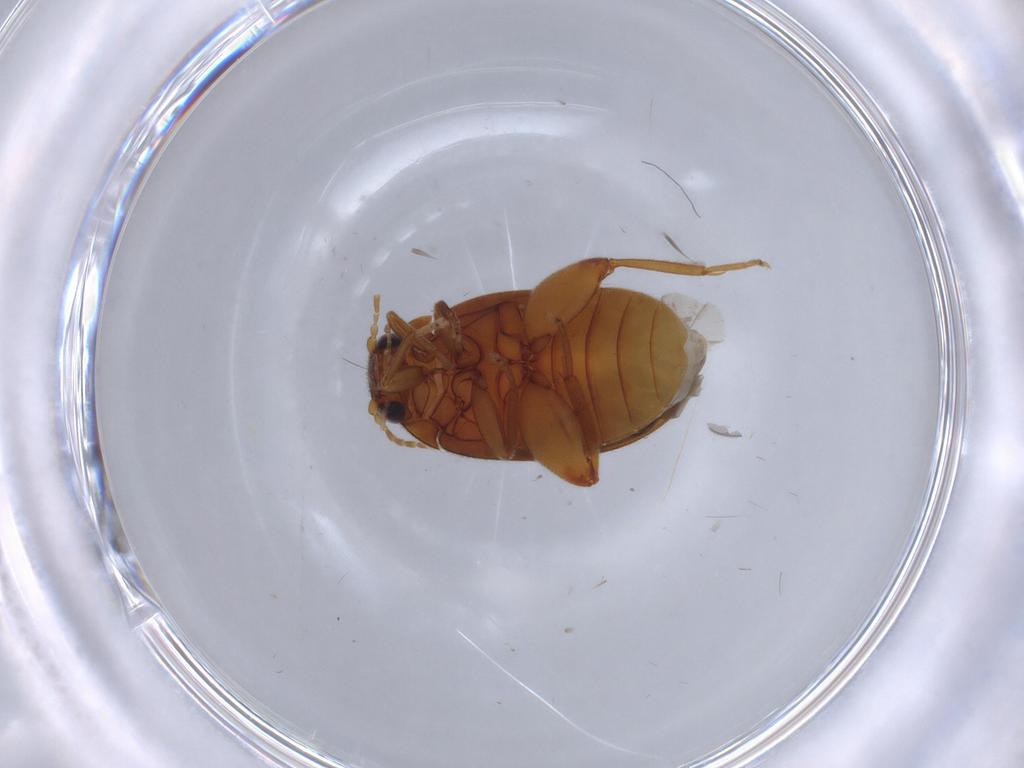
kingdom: Animalia
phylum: Arthropoda
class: Insecta
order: Coleoptera
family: Scirtidae
